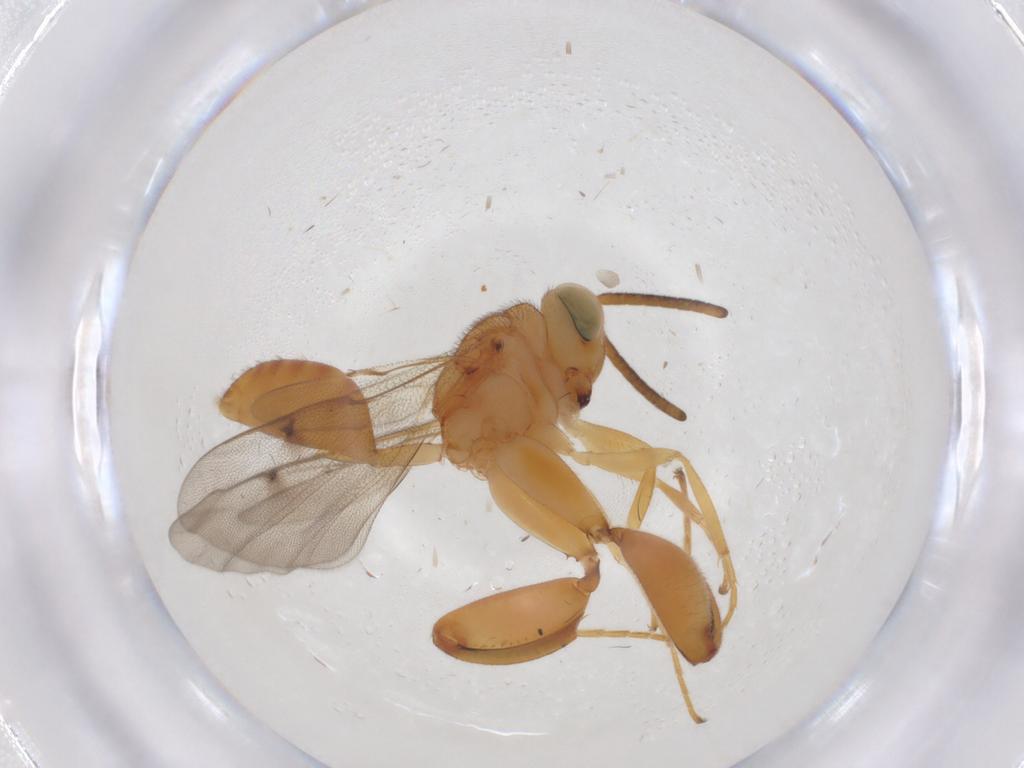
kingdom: Animalia
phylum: Arthropoda
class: Insecta
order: Hymenoptera
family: Chalcididae
